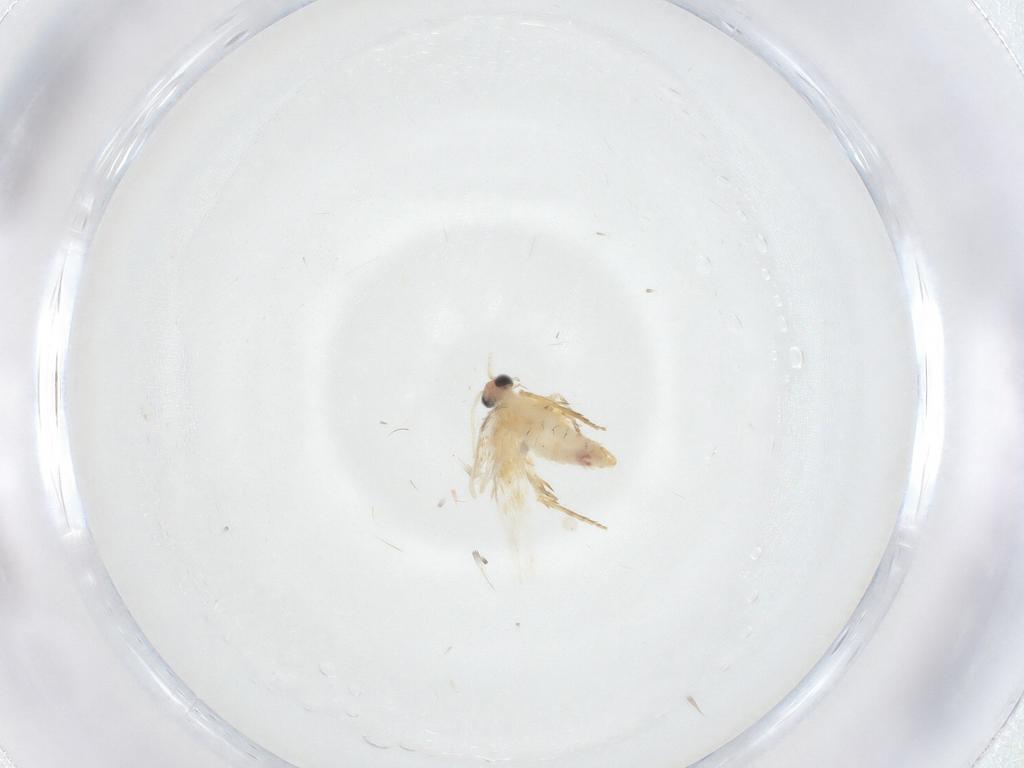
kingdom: Animalia
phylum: Arthropoda
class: Insecta
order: Lepidoptera
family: Nepticulidae
